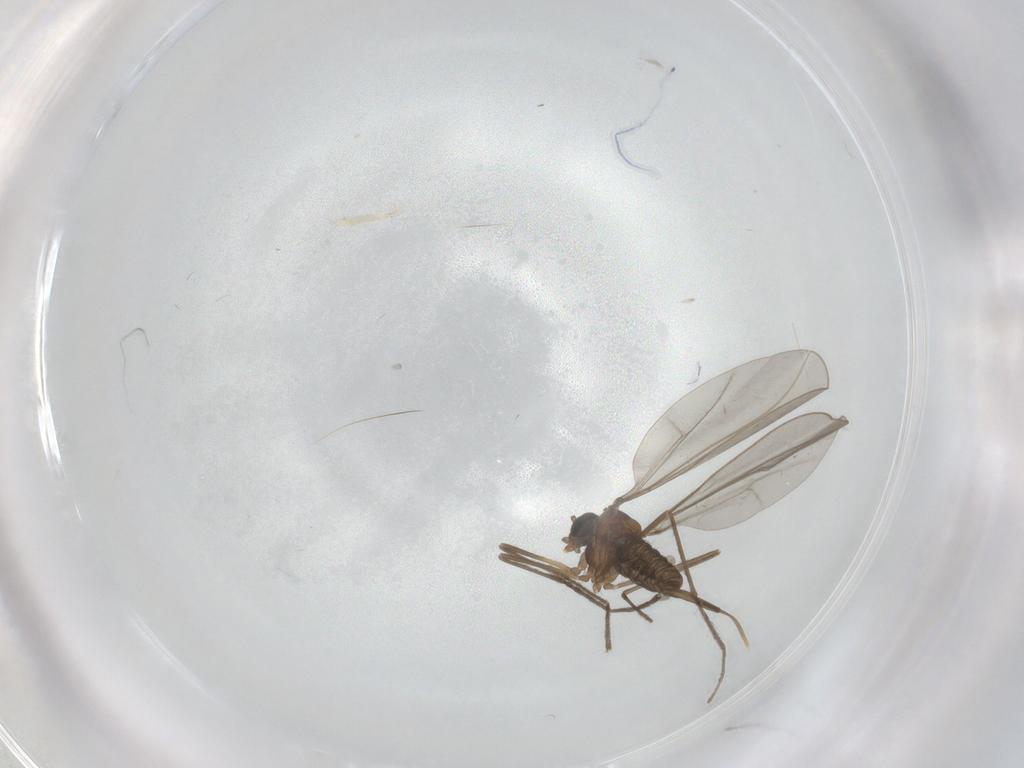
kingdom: Animalia
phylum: Arthropoda
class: Insecta
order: Diptera
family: Cecidomyiidae
